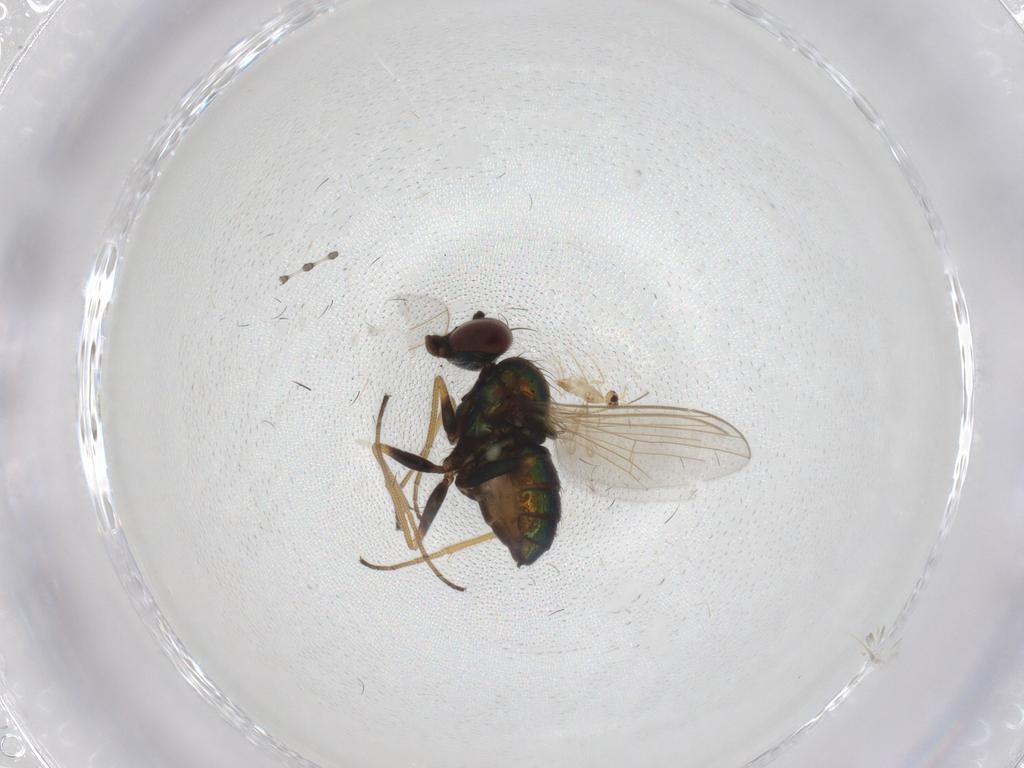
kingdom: Animalia
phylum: Arthropoda
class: Insecta
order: Diptera
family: Dolichopodidae
